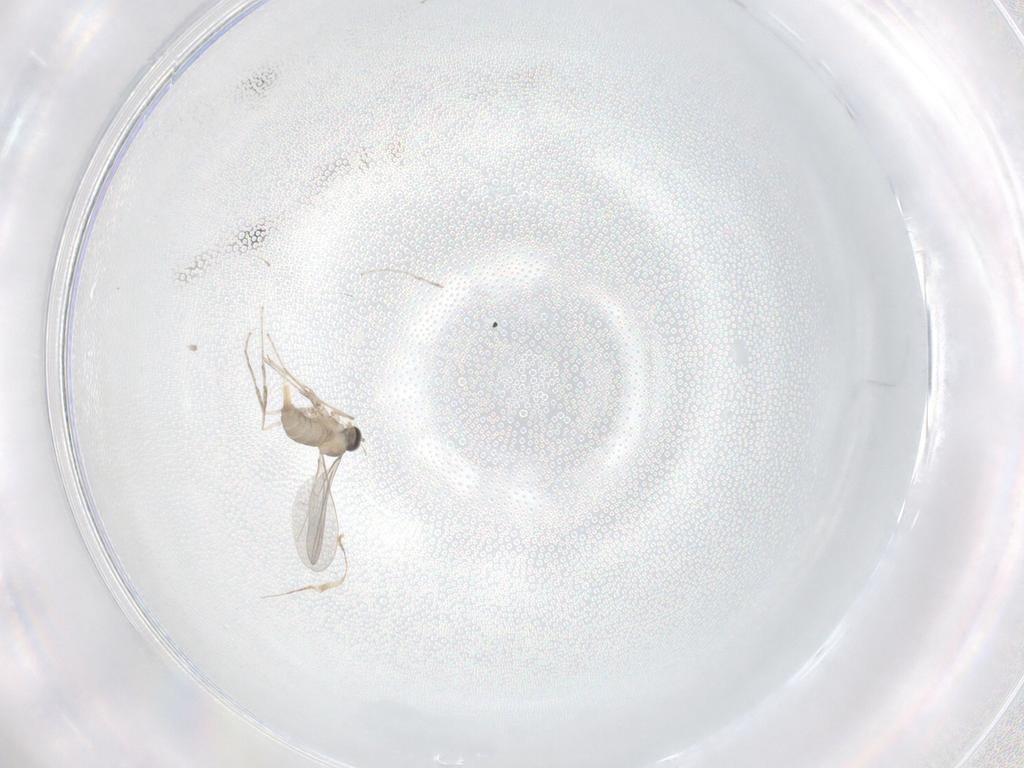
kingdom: Animalia
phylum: Arthropoda
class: Insecta
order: Diptera
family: Cecidomyiidae
